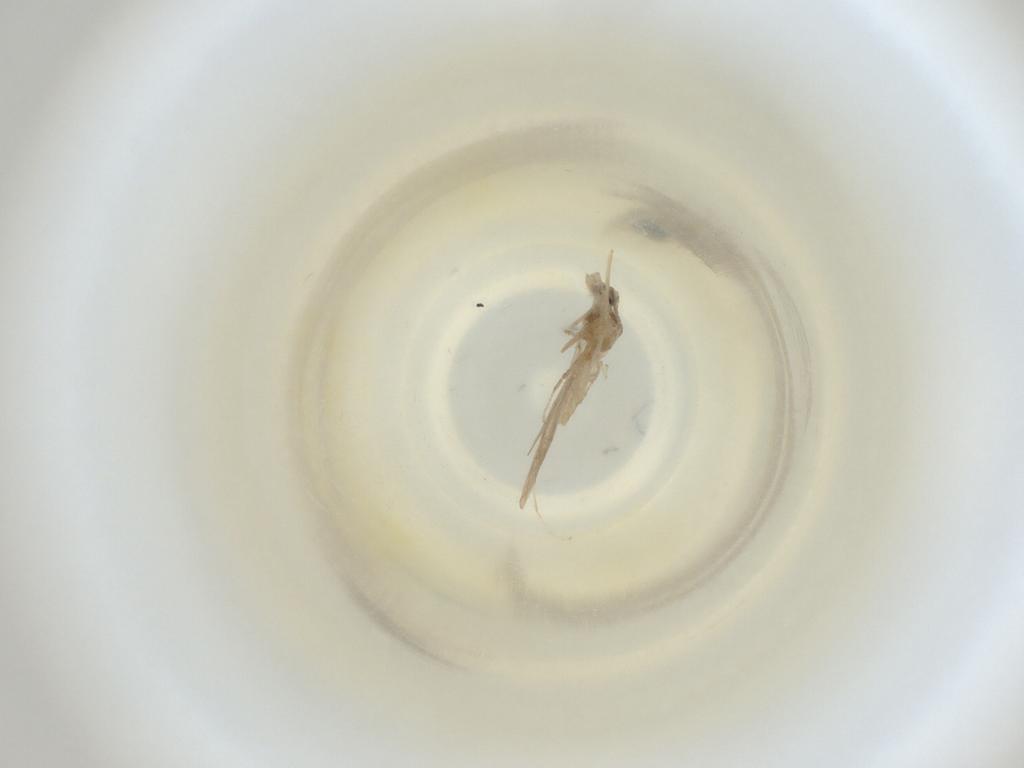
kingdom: Animalia
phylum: Arthropoda
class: Insecta
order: Diptera
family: Cecidomyiidae
